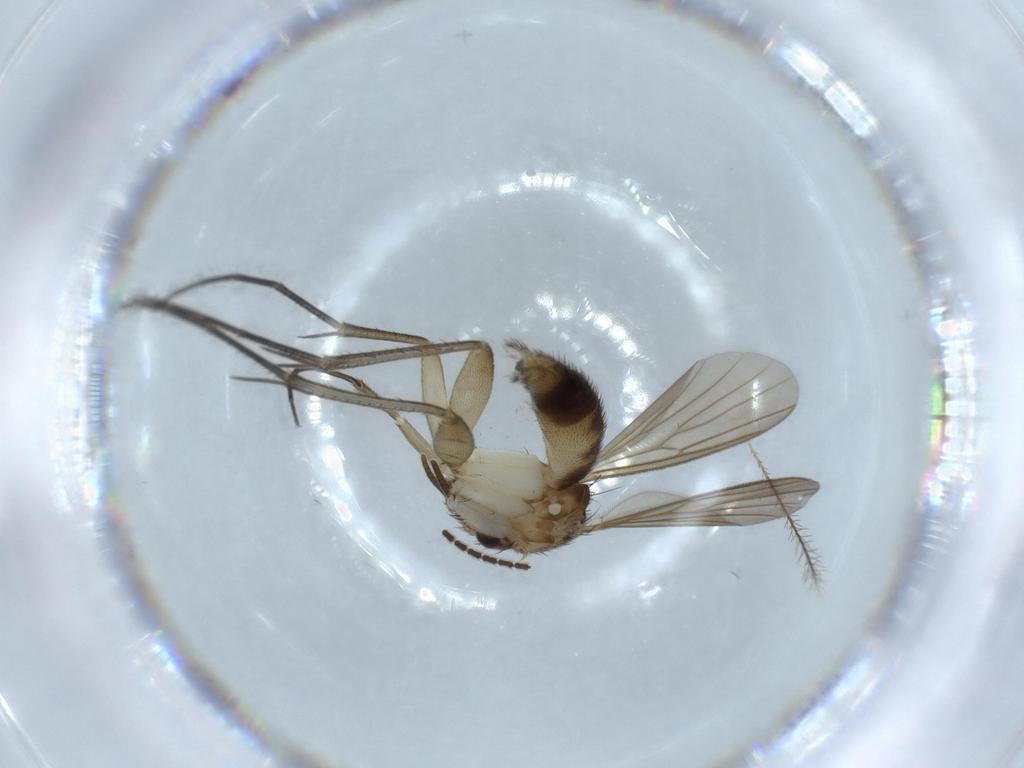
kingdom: Animalia
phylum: Arthropoda
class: Insecta
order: Diptera
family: Mycetophilidae
